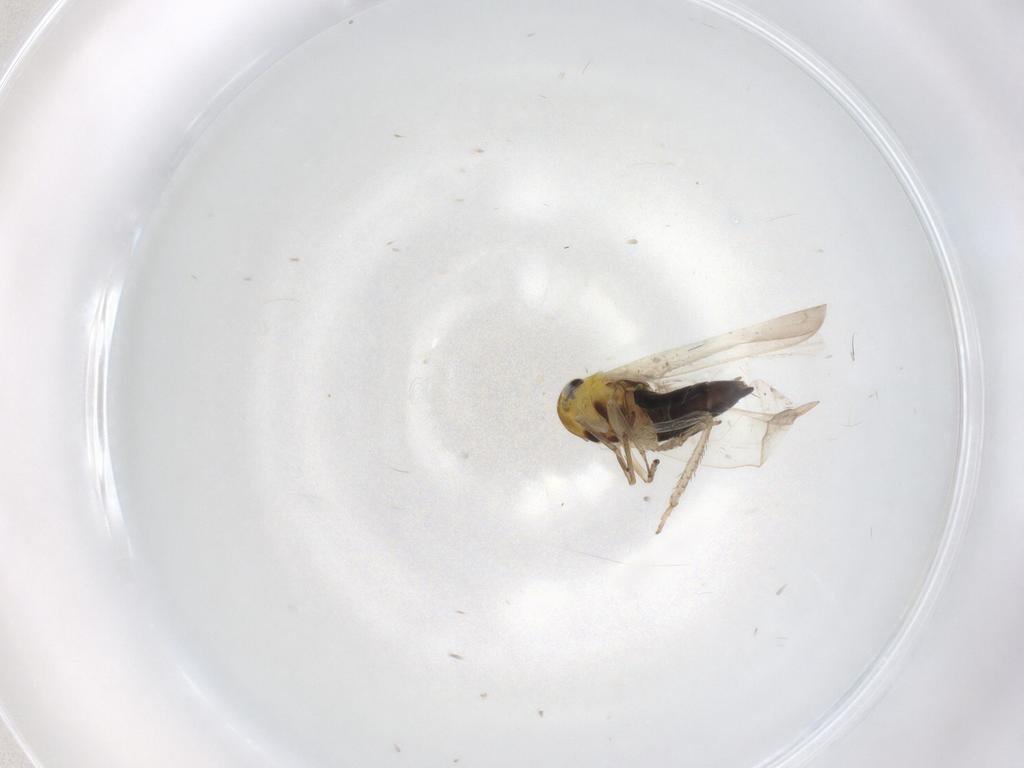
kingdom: Animalia
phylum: Arthropoda
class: Insecta
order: Hemiptera
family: Cicadellidae
